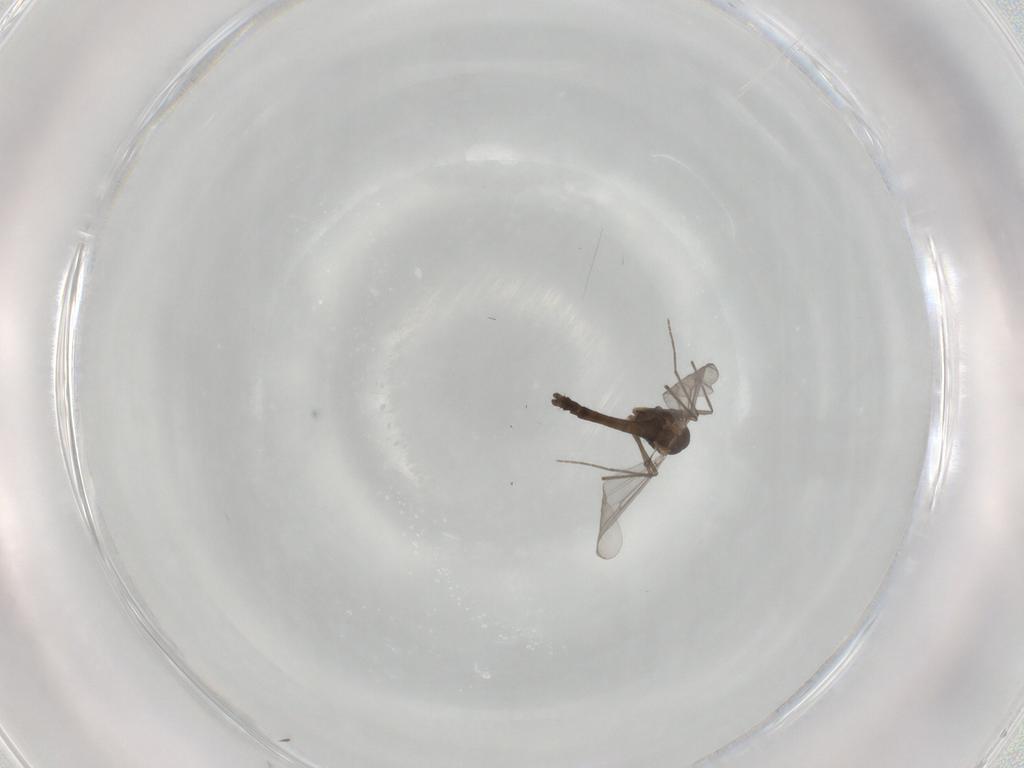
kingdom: Animalia
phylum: Arthropoda
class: Insecta
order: Diptera
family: Chironomidae
